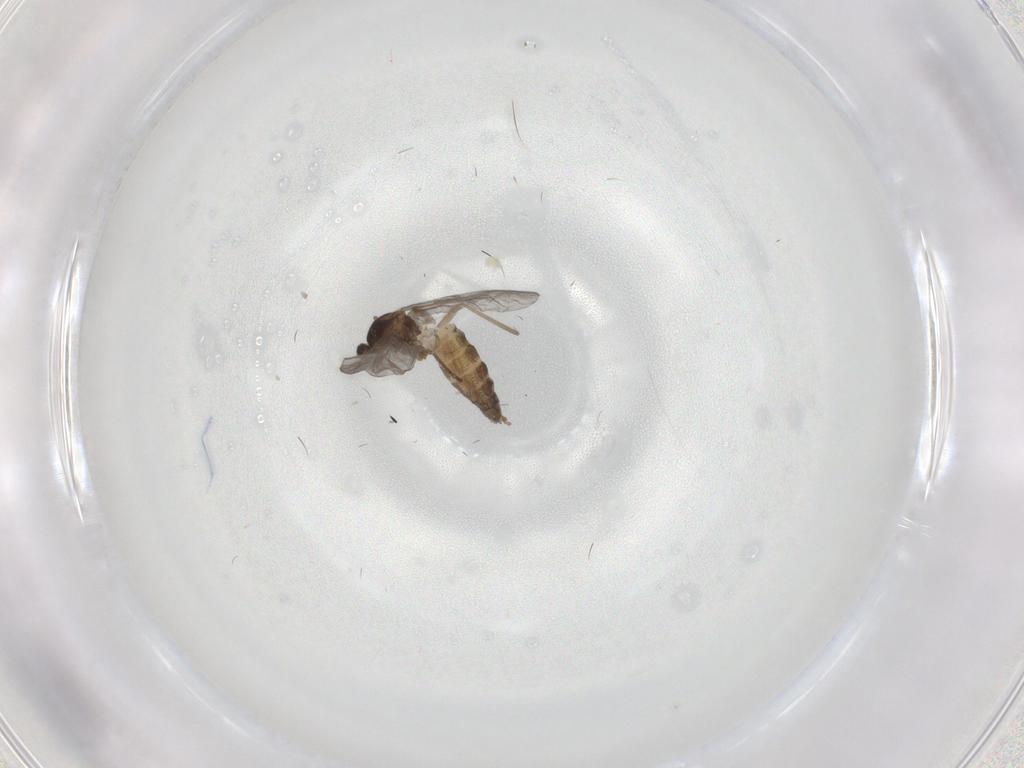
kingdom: Animalia
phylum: Arthropoda
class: Insecta
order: Diptera
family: Cecidomyiidae
